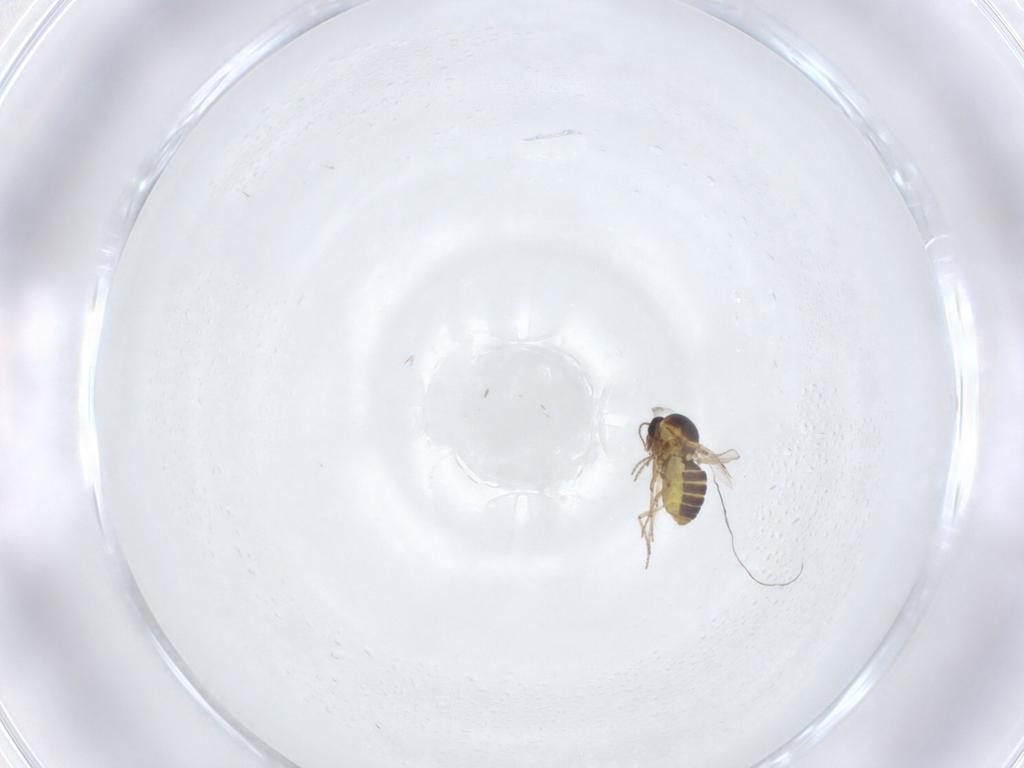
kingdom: Animalia
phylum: Arthropoda
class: Insecta
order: Diptera
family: Ceratopogonidae
